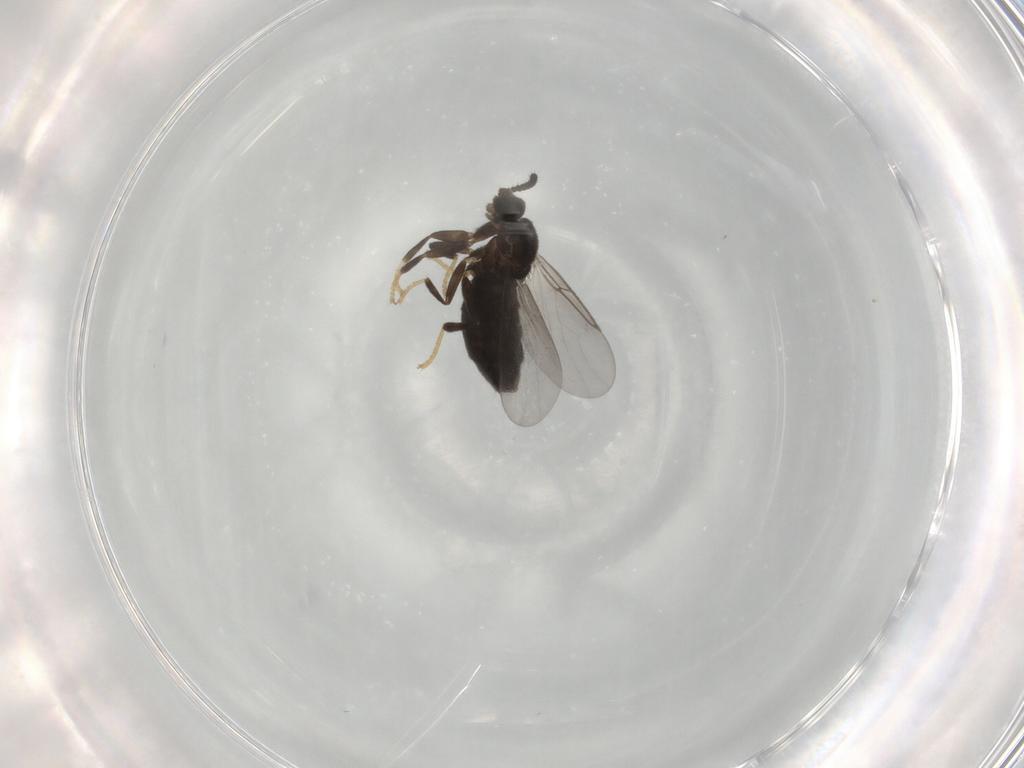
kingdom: Animalia
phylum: Arthropoda
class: Insecta
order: Diptera
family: Scatopsidae
